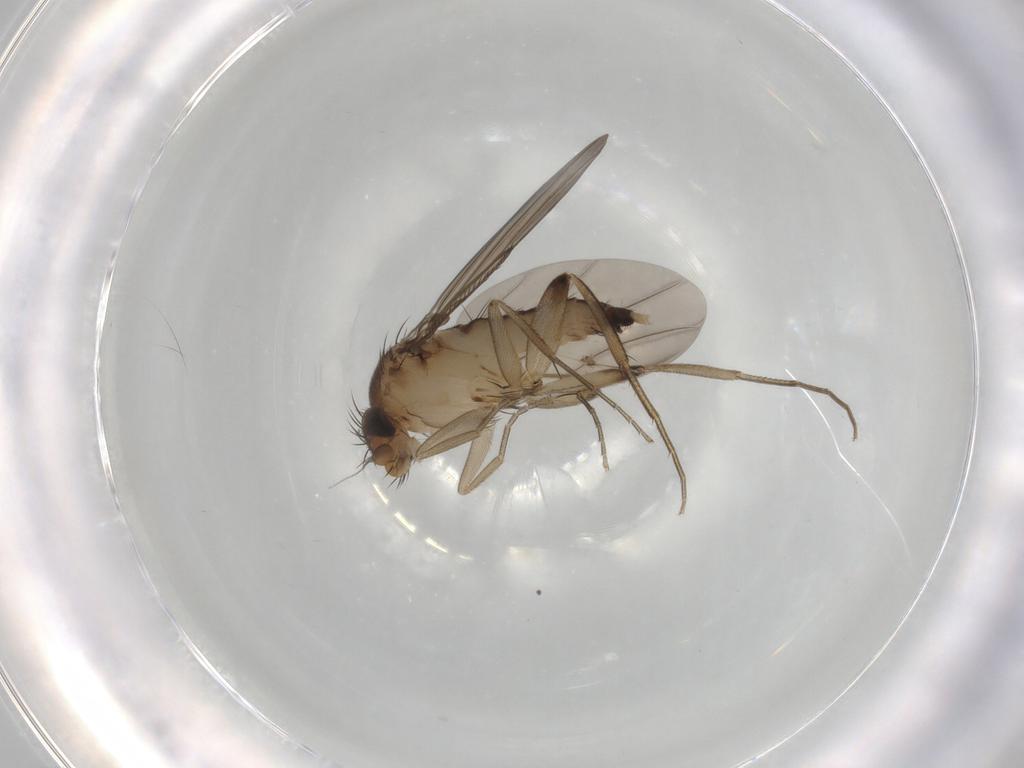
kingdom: Animalia
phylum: Arthropoda
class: Insecta
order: Diptera
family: Phoridae
